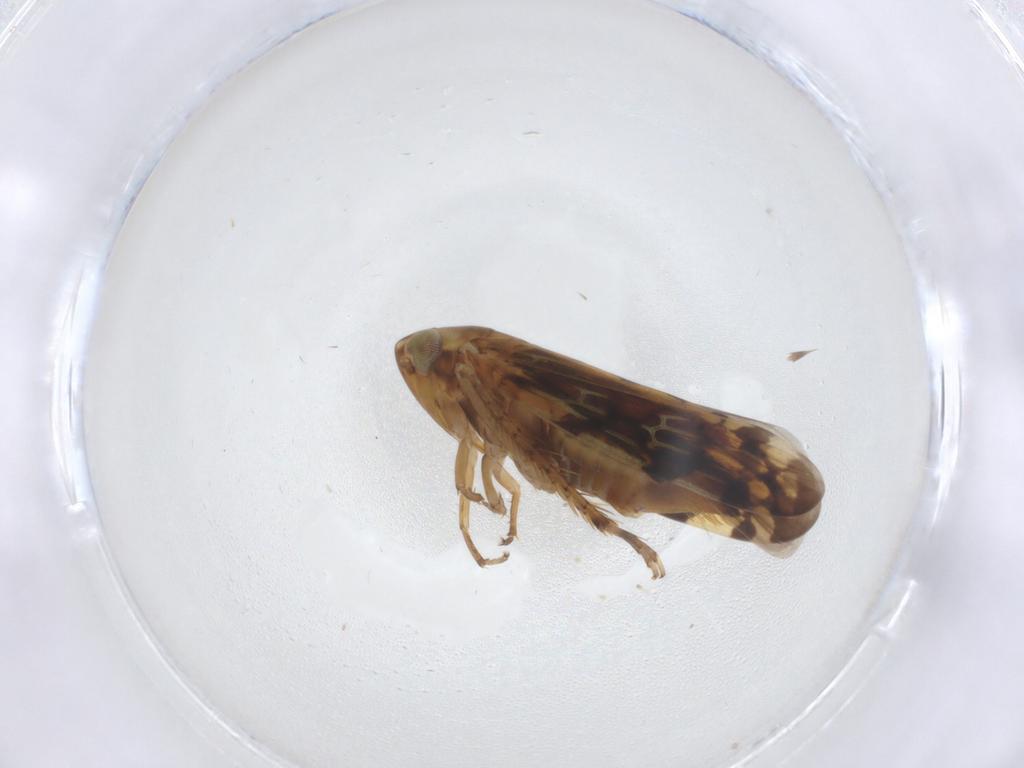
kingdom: Animalia
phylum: Arthropoda
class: Insecta
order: Hemiptera
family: Cicadellidae
